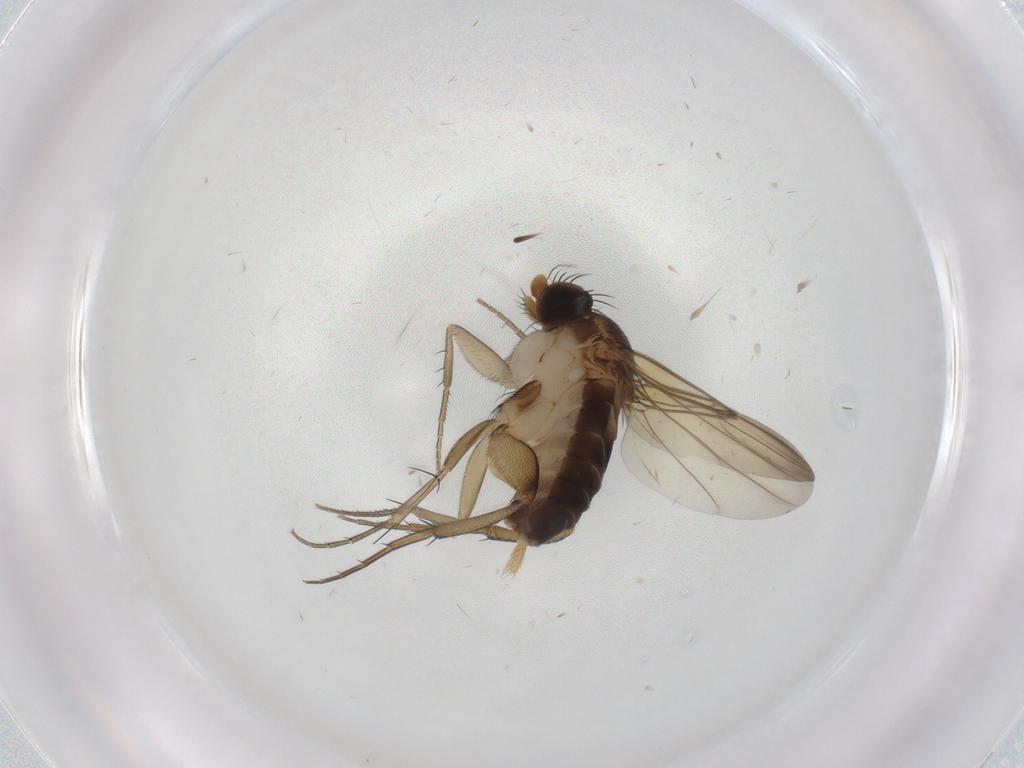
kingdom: Animalia
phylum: Arthropoda
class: Insecta
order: Diptera
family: Phoridae
